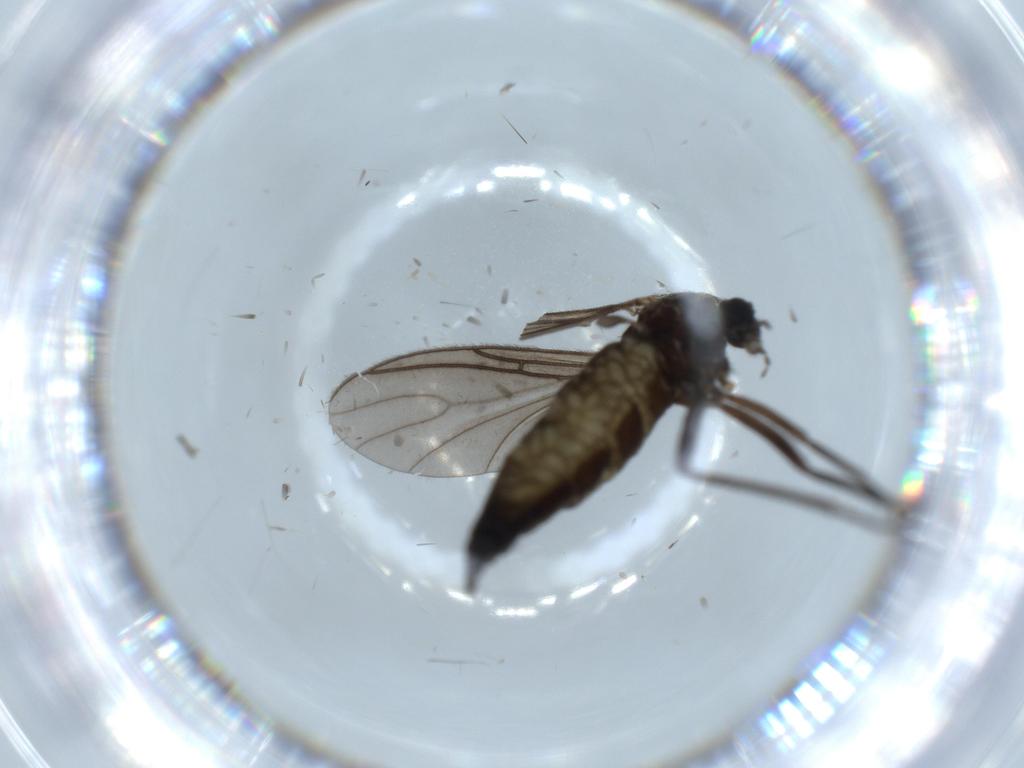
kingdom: Animalia
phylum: Arthropoda
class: Insecta
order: Diptera
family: Sciaridae
